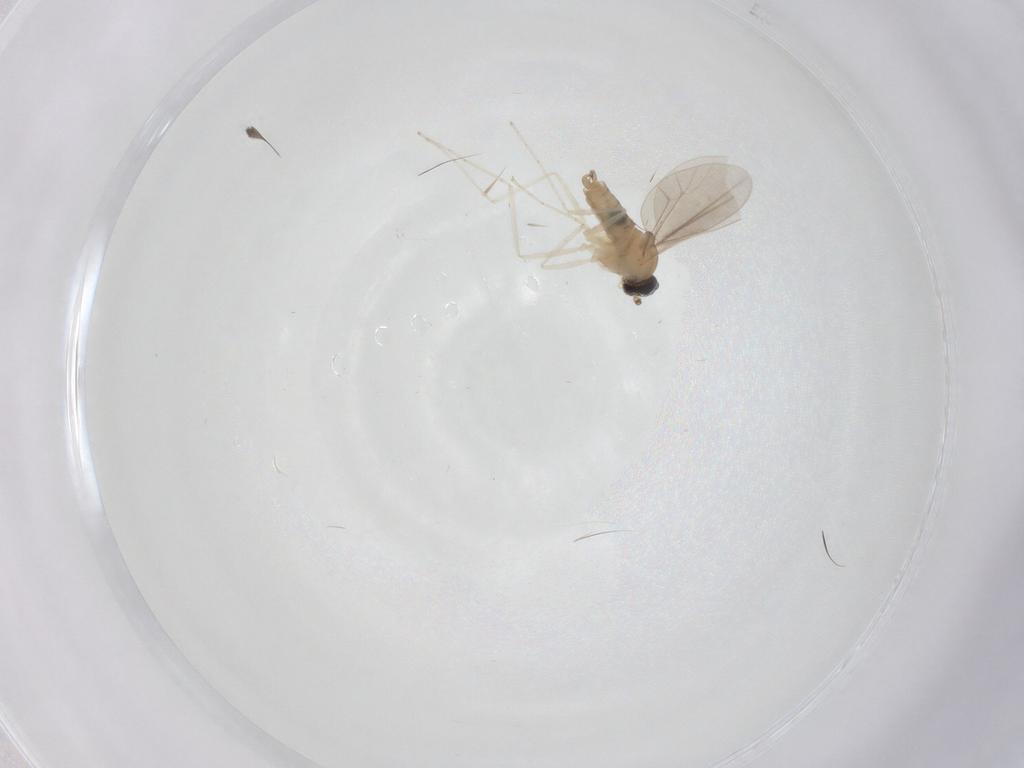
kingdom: Animalia
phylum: Arthropoda
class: Insecta
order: Diptera
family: Cecidomyiidae
